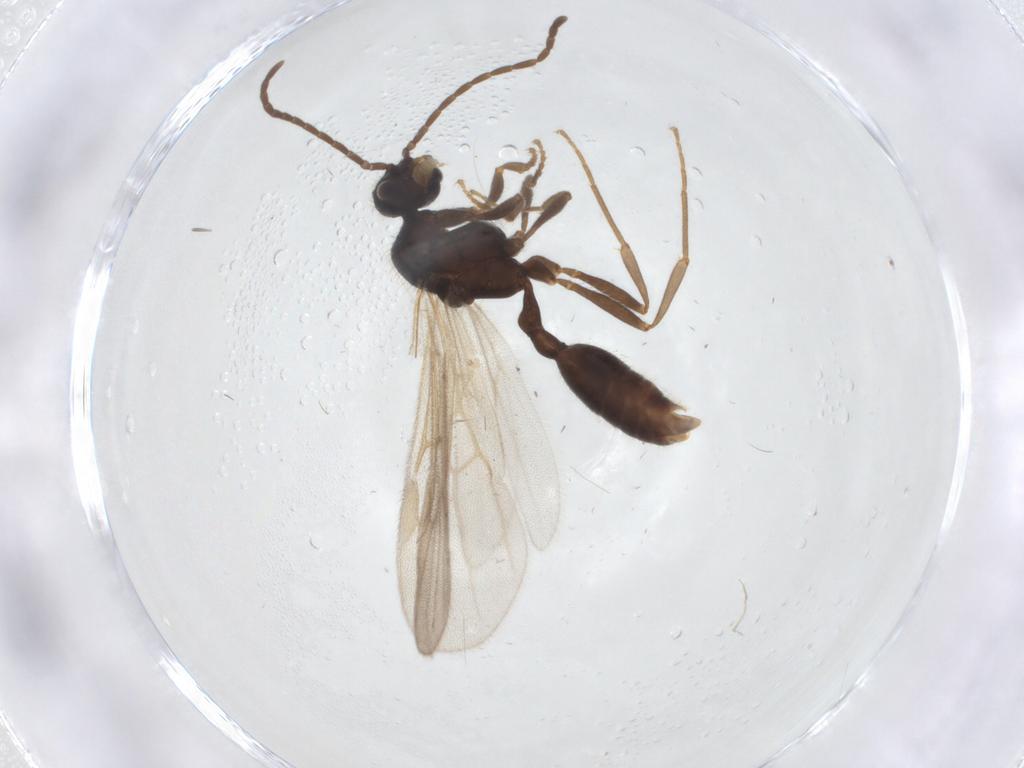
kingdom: Animalia
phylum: Arthropoda
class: Insecta
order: Hymenoptera
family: Formicidae
